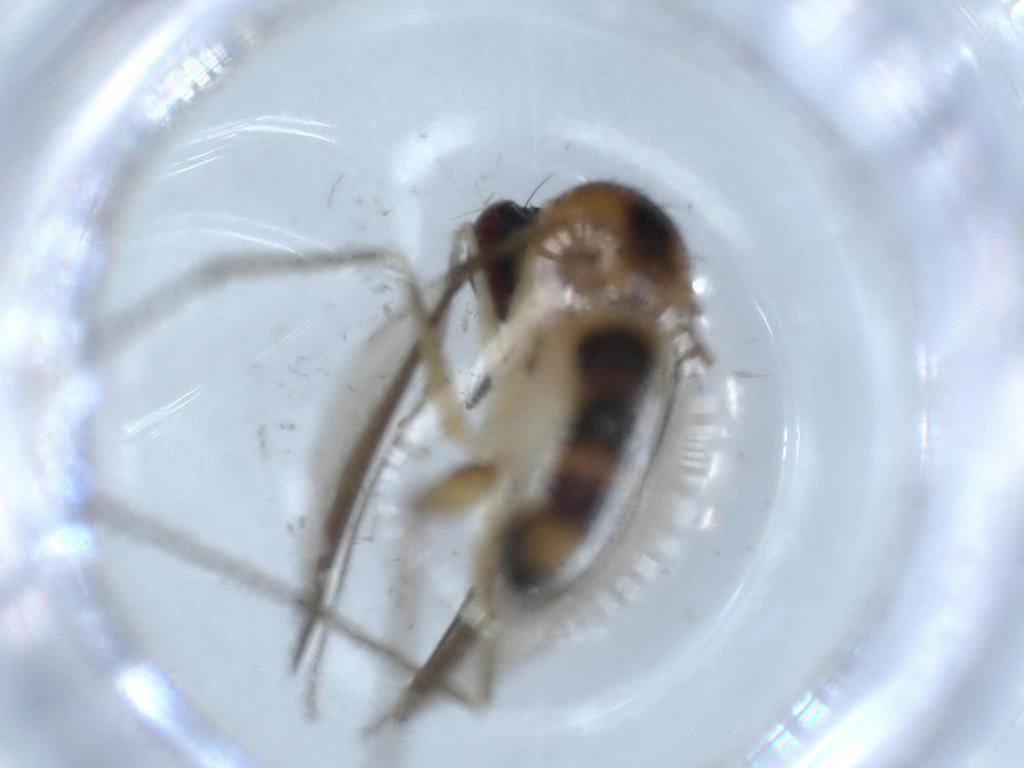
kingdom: Animalia
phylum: Arthropoda
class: Insecta
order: Diptera
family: Dolichopodidae
